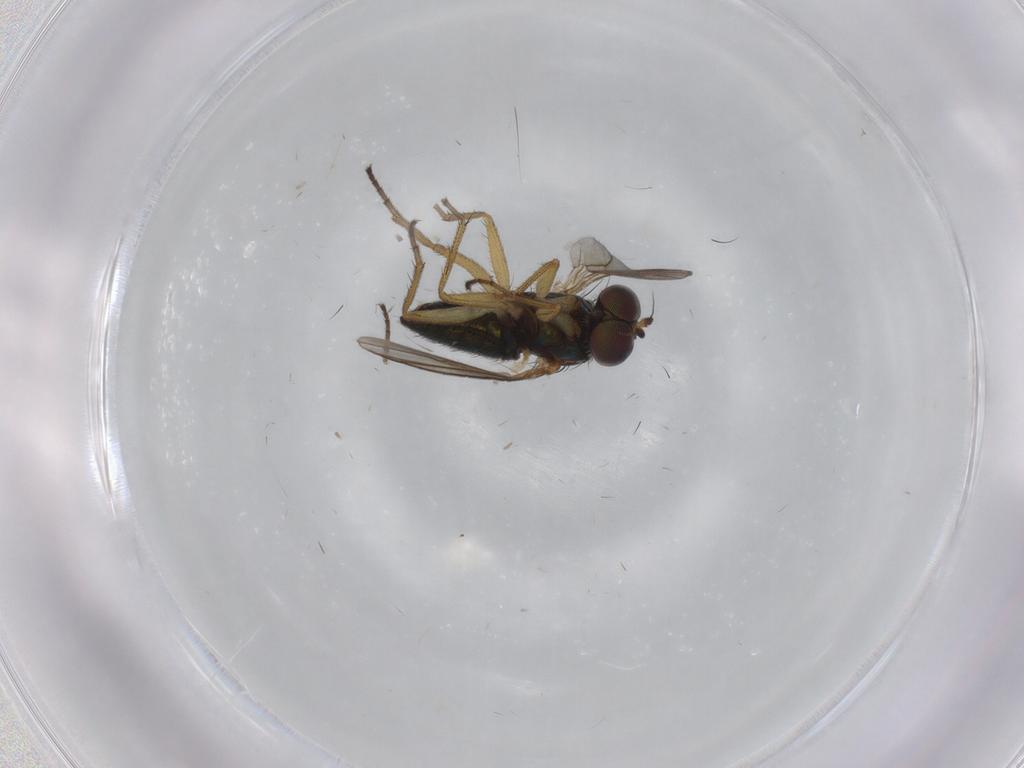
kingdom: Animalia
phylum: Arthropoda
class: Insecta
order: Diptera
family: Dolichopodidae
